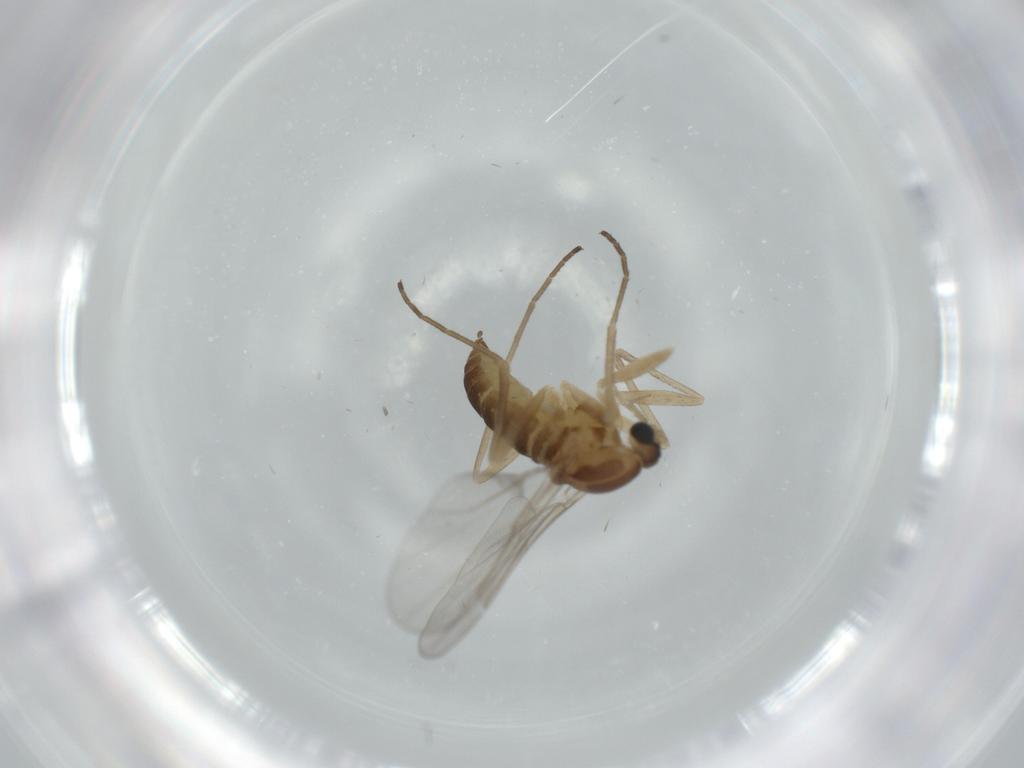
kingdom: Animalia
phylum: Arthropoda
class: Insecta
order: Diptera
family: Cecidomyiidae
